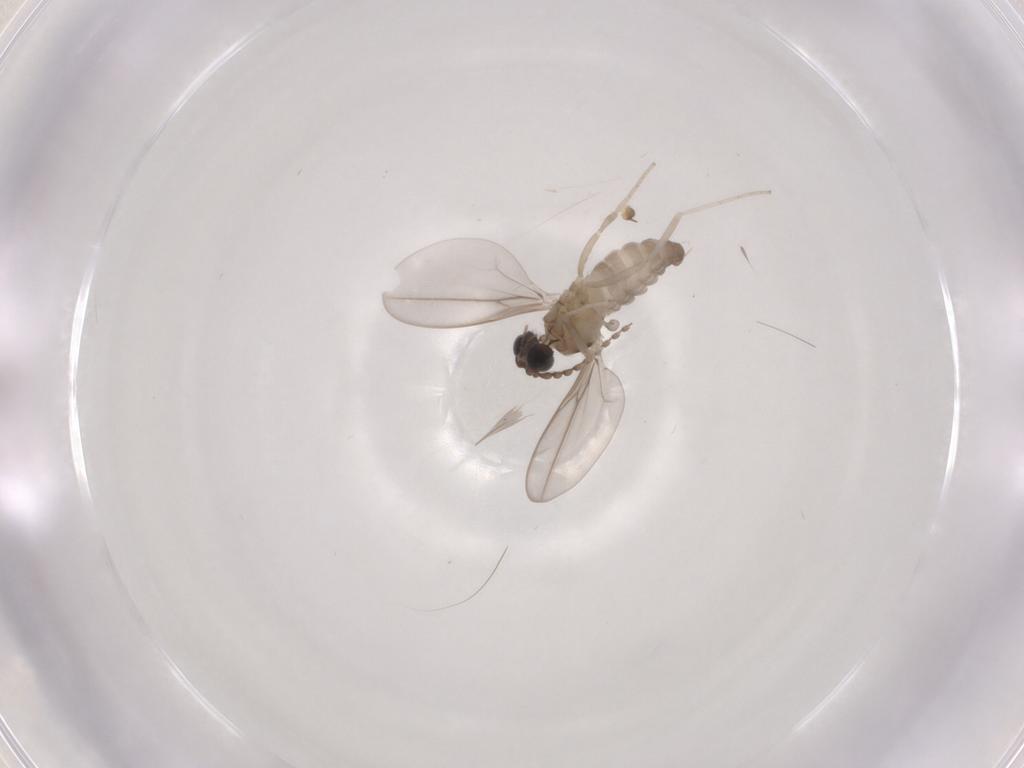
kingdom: Animalia
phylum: Arthropoda
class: Insecta
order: Diptera
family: Cecidomyiidae
